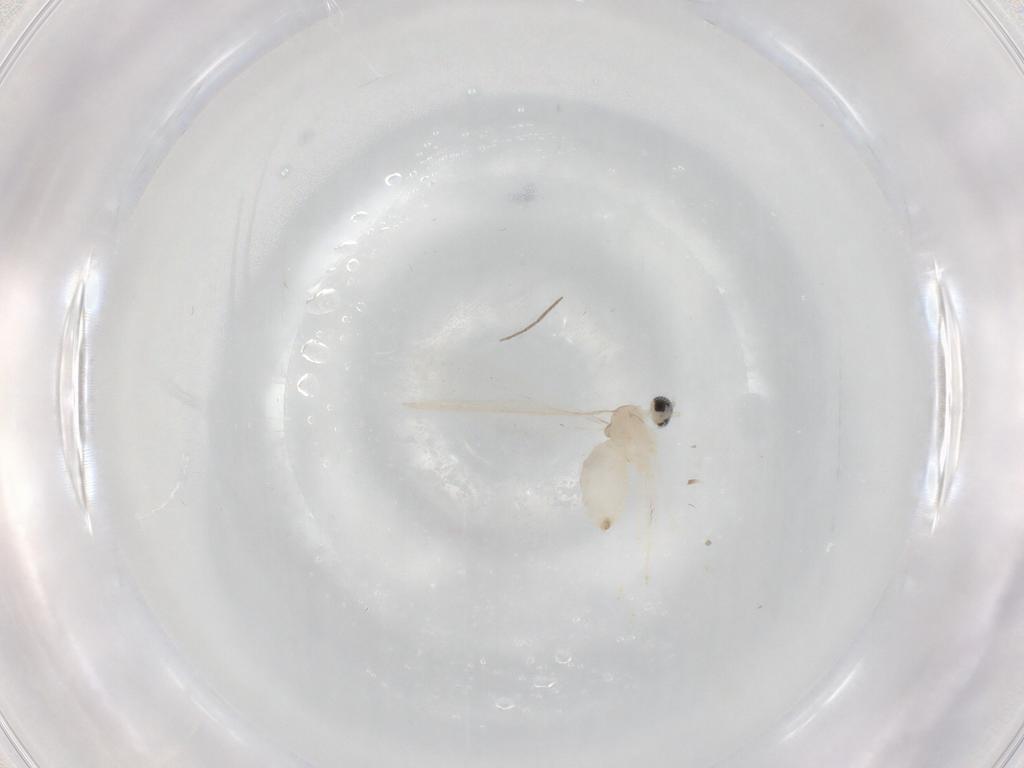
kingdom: Animalia
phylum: Arthropoda
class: Insecta
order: Diptera
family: Cecidomyiidae
